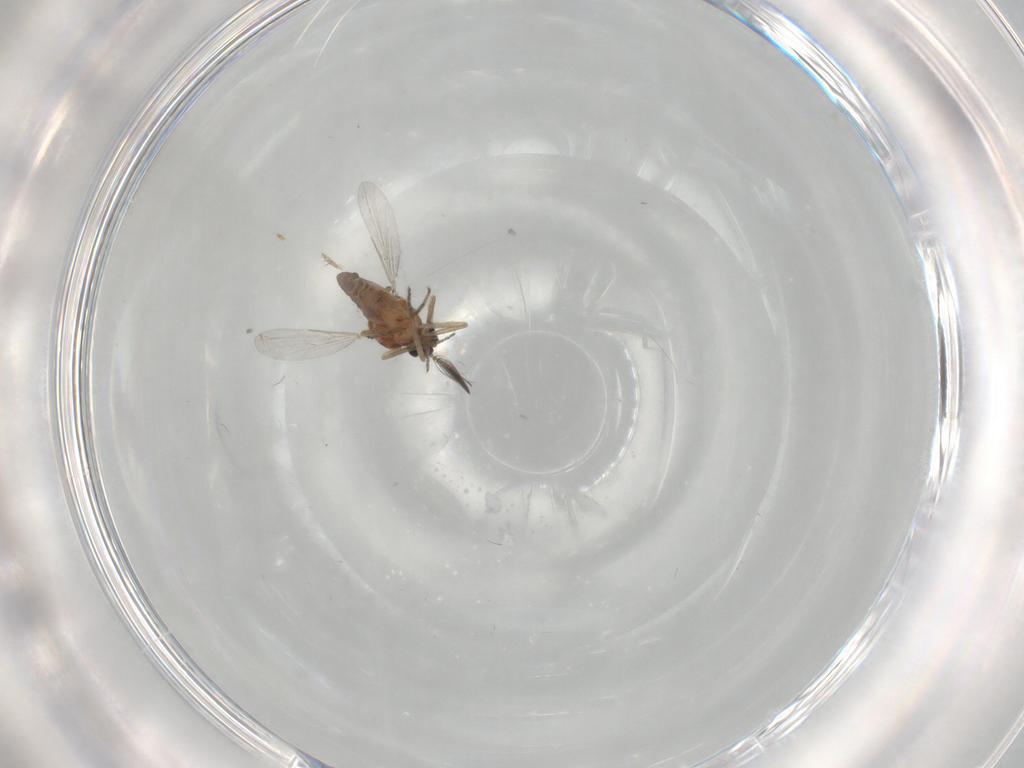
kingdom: Animalia
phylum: Arthropoda
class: Insecta
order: Diptera
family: Ceratopogonidae
